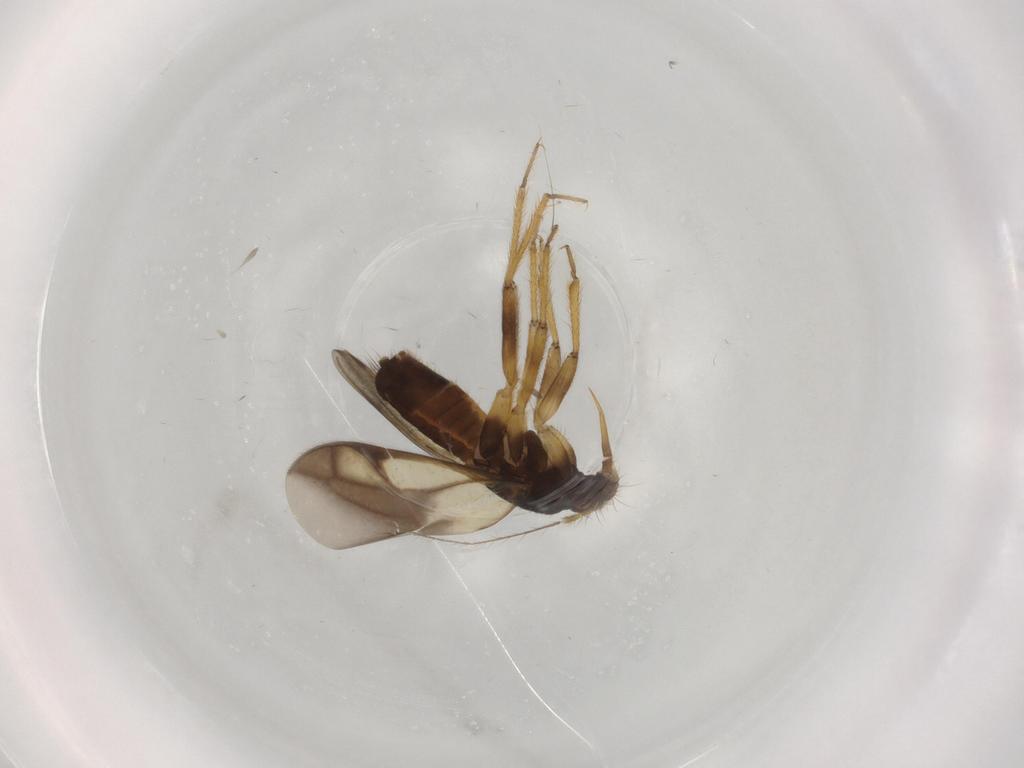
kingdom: Animalia
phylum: Arthropoda
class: Insecta
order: Hemiptera
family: Ceratocombidae
